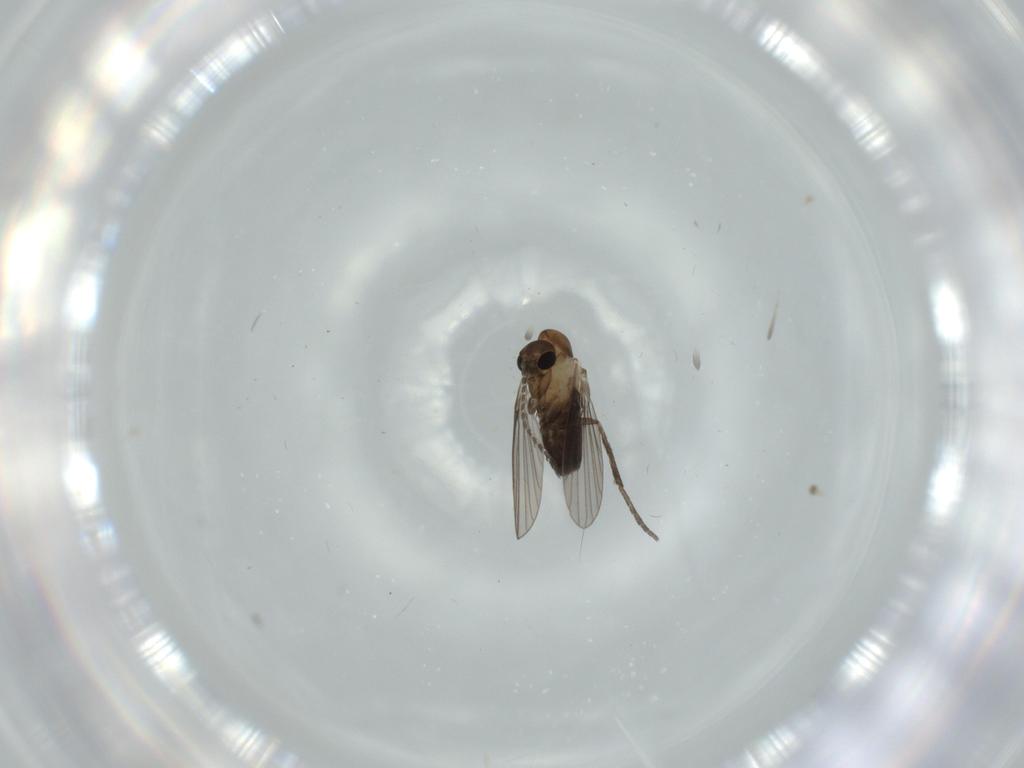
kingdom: Animalia
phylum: Arthropoda
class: Insecta
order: Diptera
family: Psychodidae
